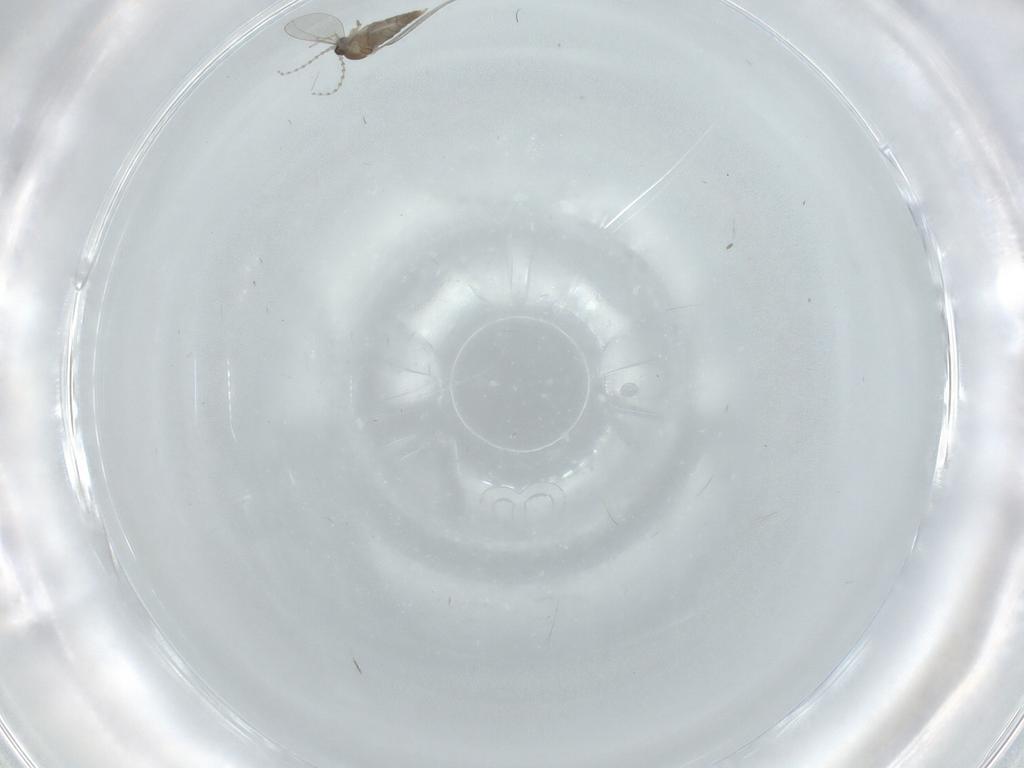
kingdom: Animalia
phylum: Arthropoda
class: Insecta
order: Diptera
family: Cecidomyiidae
